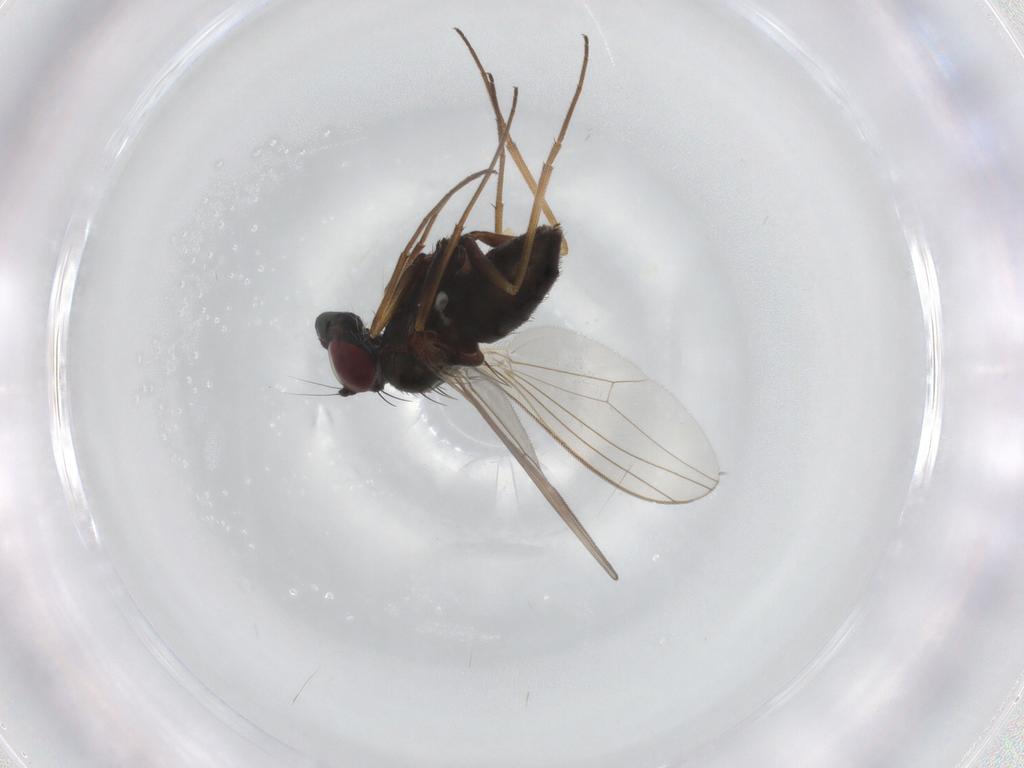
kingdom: Animalia
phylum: Arthropoda
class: Insecta
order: Diptera
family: Dolichopodidae
